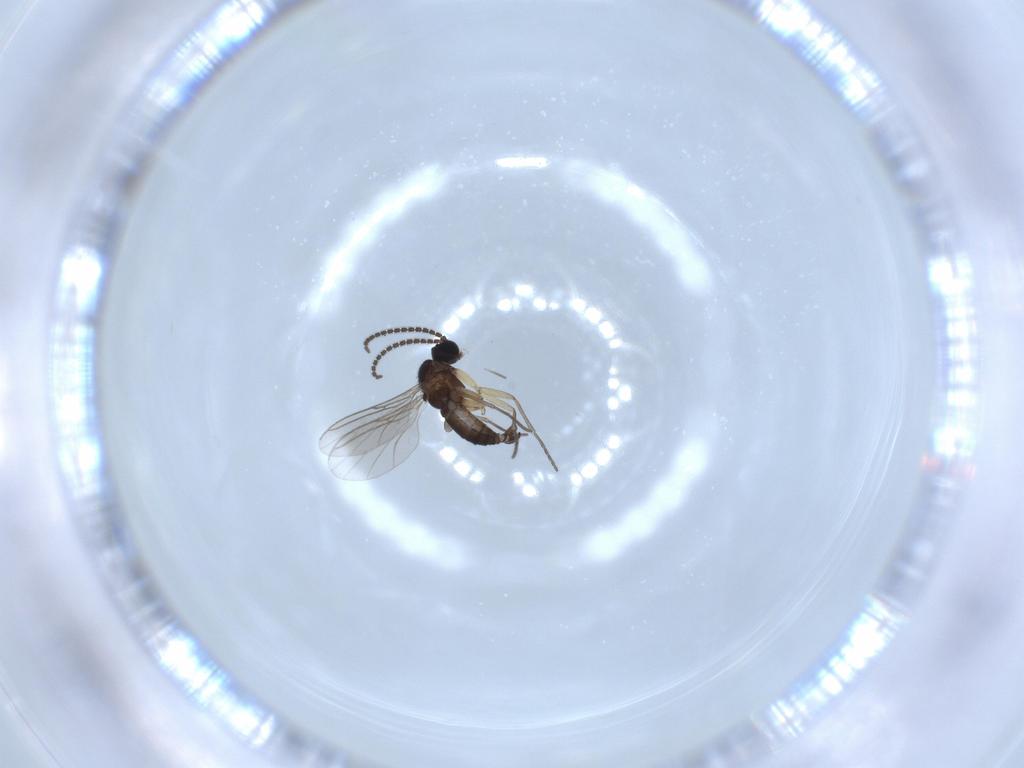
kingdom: Animalia
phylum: Arthropoda
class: Insecta
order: Diptera
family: Sciaridae
